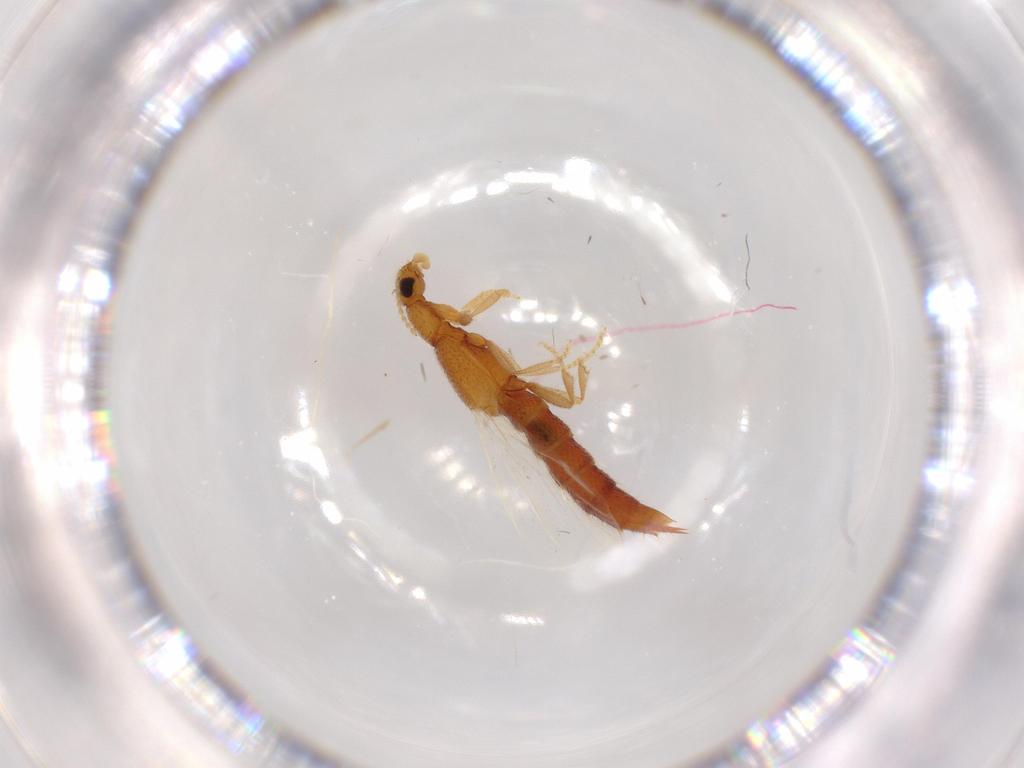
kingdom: Animalia
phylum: Arthropoda
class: Insecta
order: Coleoptera
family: Staphylinidae
